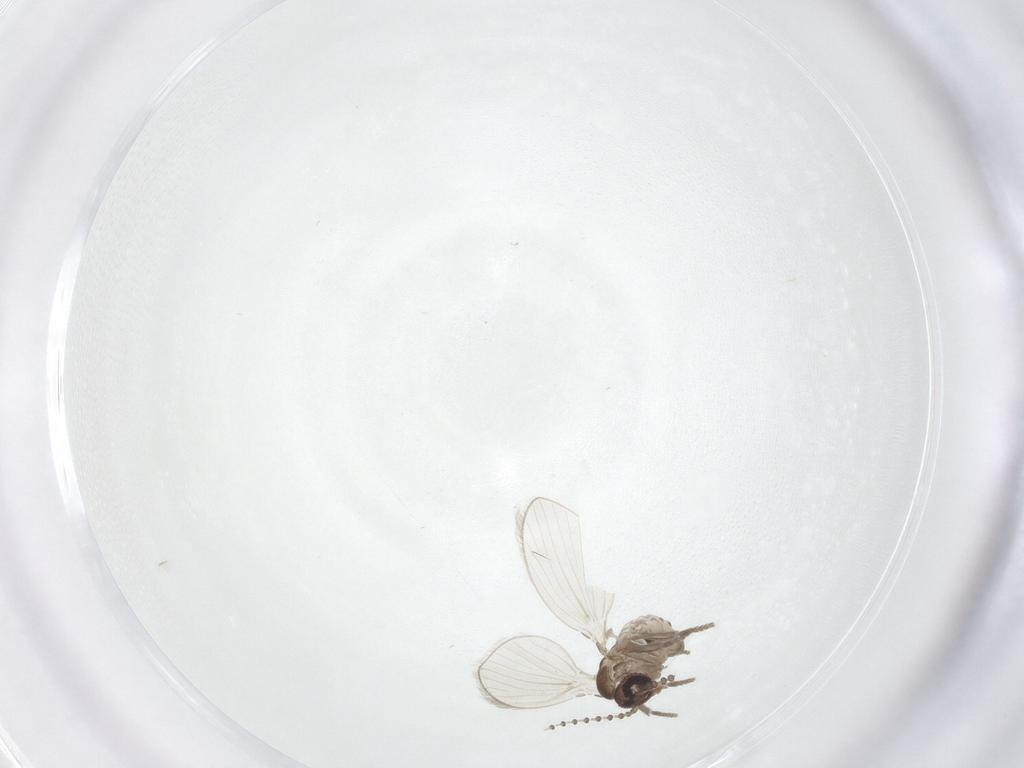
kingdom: Animalia
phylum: Arthropoda
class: Insecta
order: Diptera
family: Psychodidae
